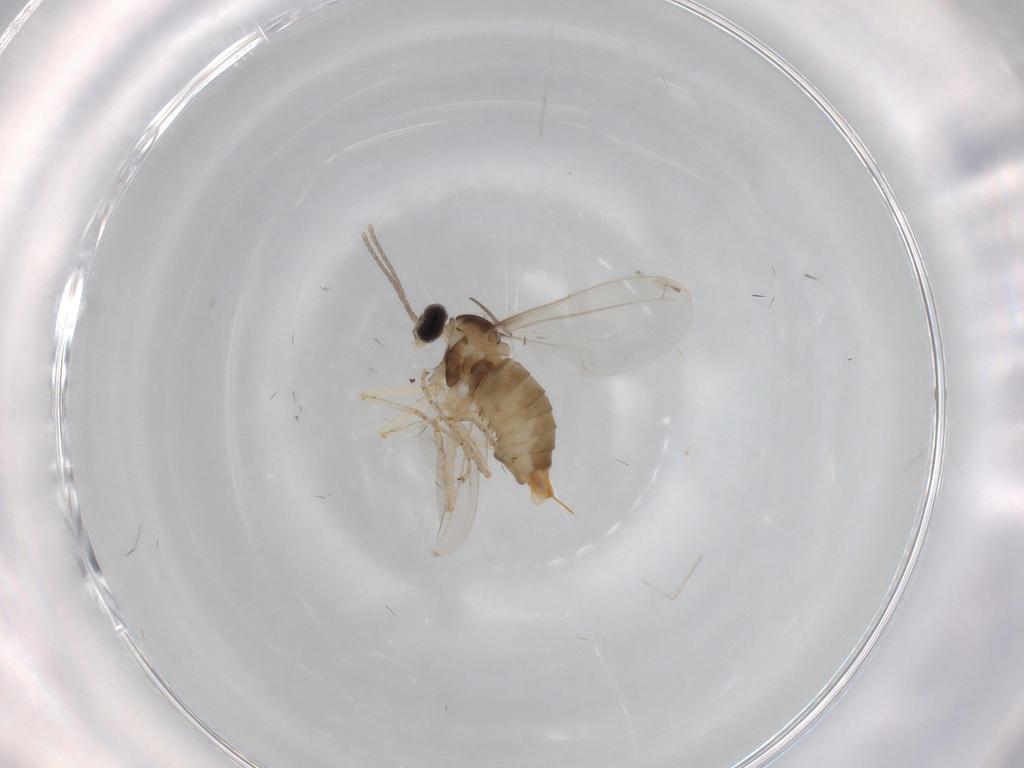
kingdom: Animalia
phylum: Arthropoda
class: Insecta
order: Diptera
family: Cecidomyiidae
